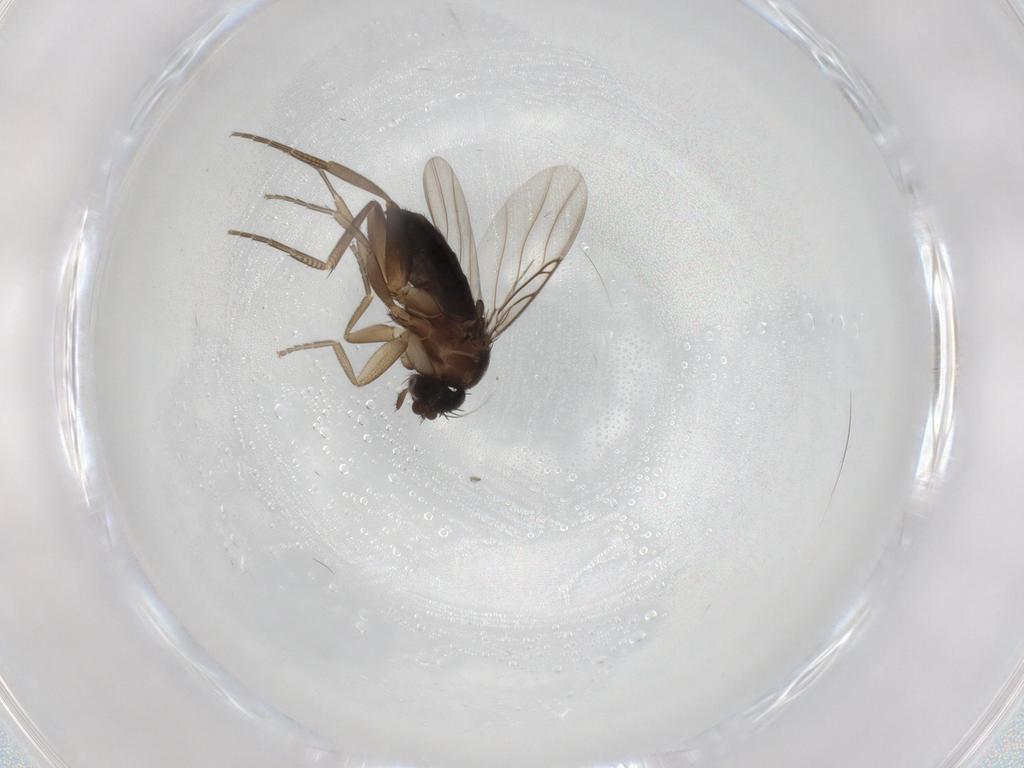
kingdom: Animalia
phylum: Arthropoda
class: Insecta
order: Diptera
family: Phoridae
